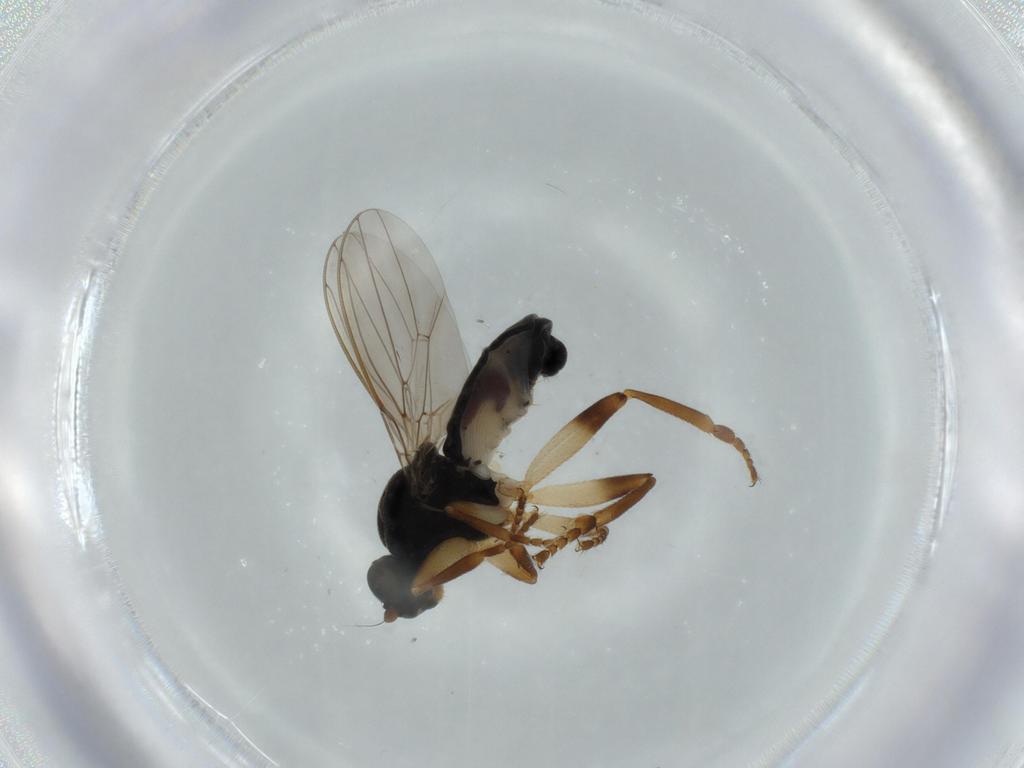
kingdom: Animalia
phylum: Arthropoda
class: Insecta
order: Diptera
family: Sphaeroceridae
